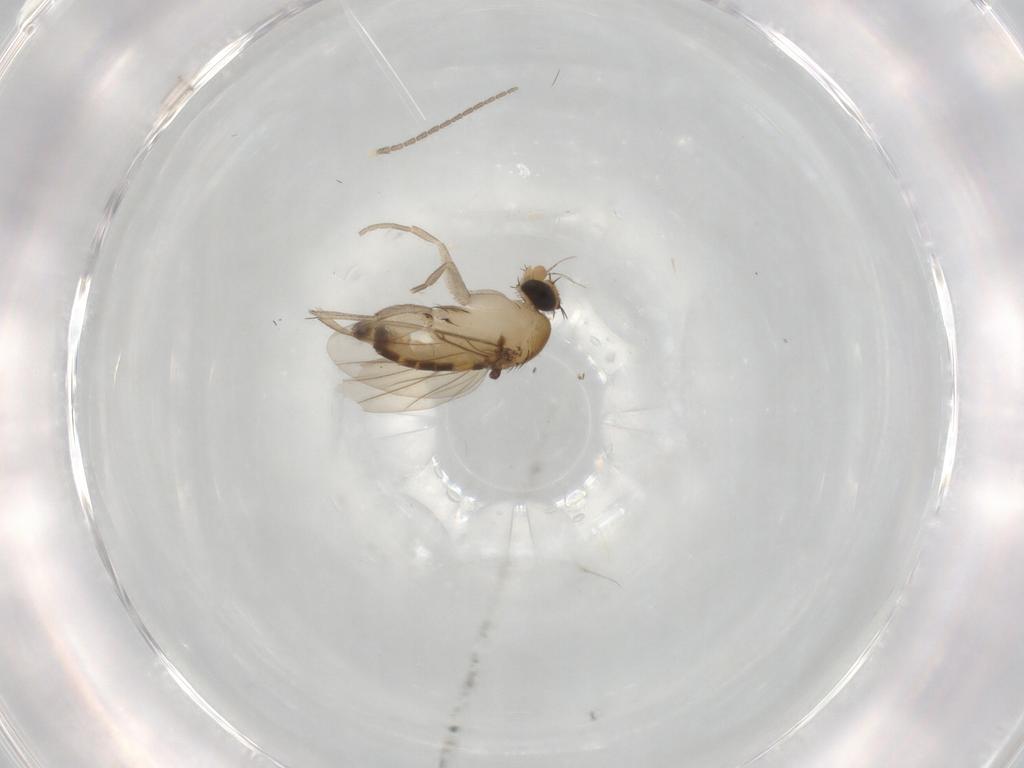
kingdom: Animalia
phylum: Arthropoda
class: Insecta
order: Diptera
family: Cecidomyiidae
